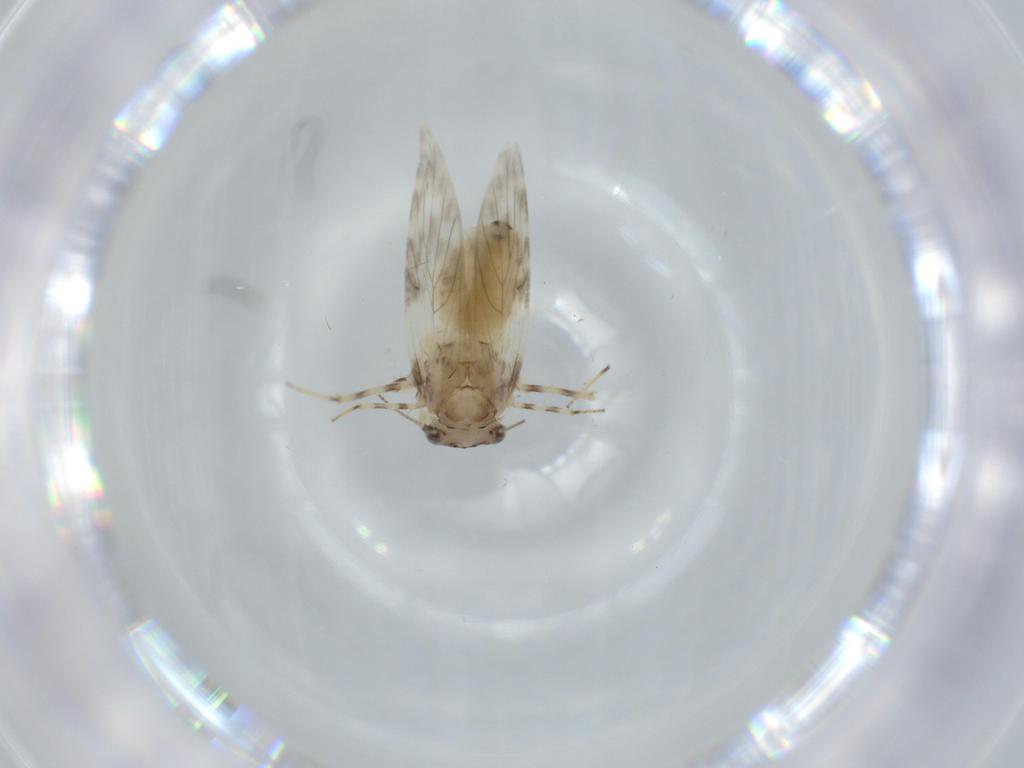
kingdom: Animalia
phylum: Arthropoda
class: Insecta
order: Psocodea
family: Lepidopsocidae
